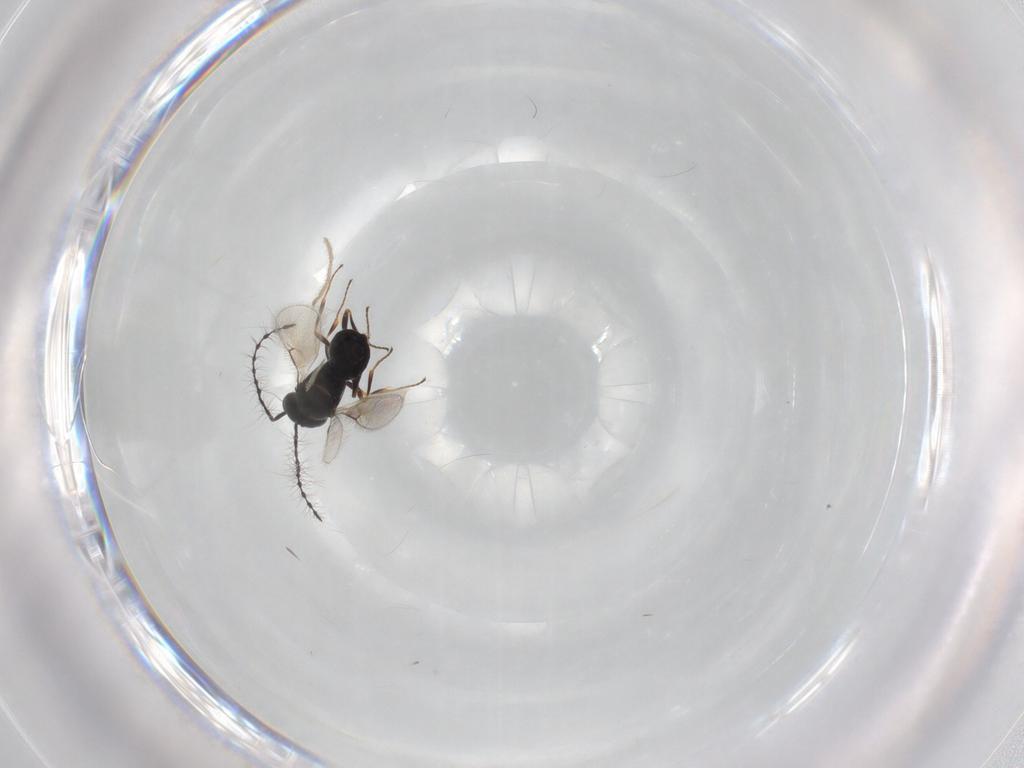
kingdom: Animalia
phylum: Arthropoda
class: Insecta
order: Hymenoptera
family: Scelionidae
